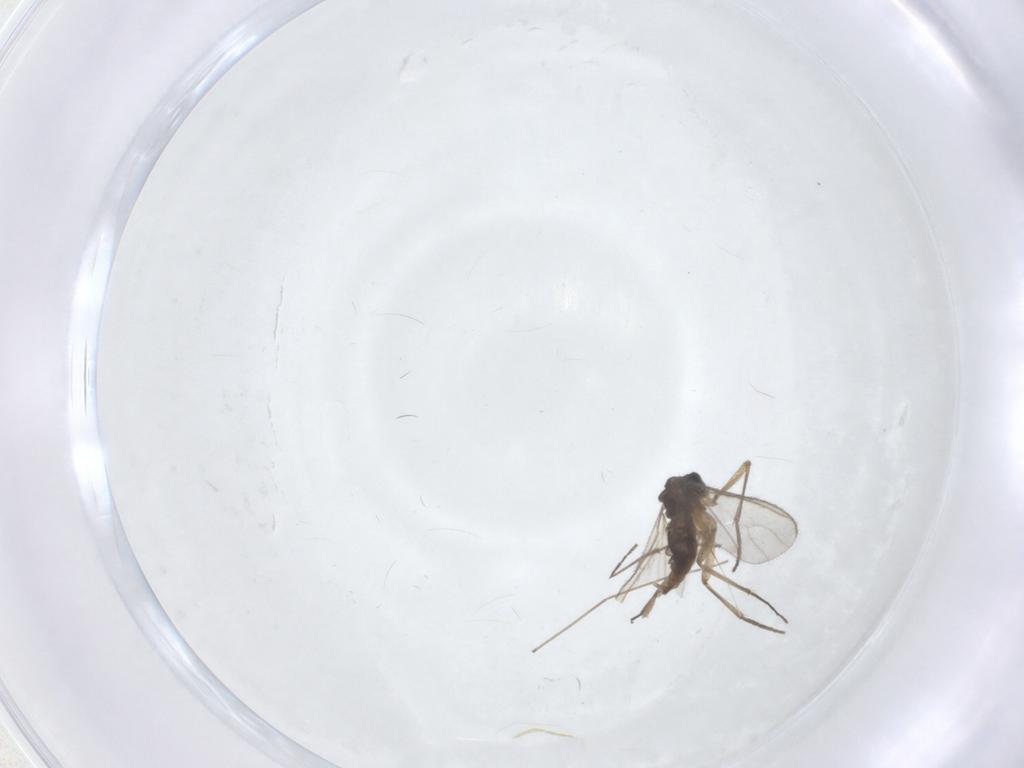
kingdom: Animalia
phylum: Arthropoda
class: Insecta
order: Diptera
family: Sciaridae
